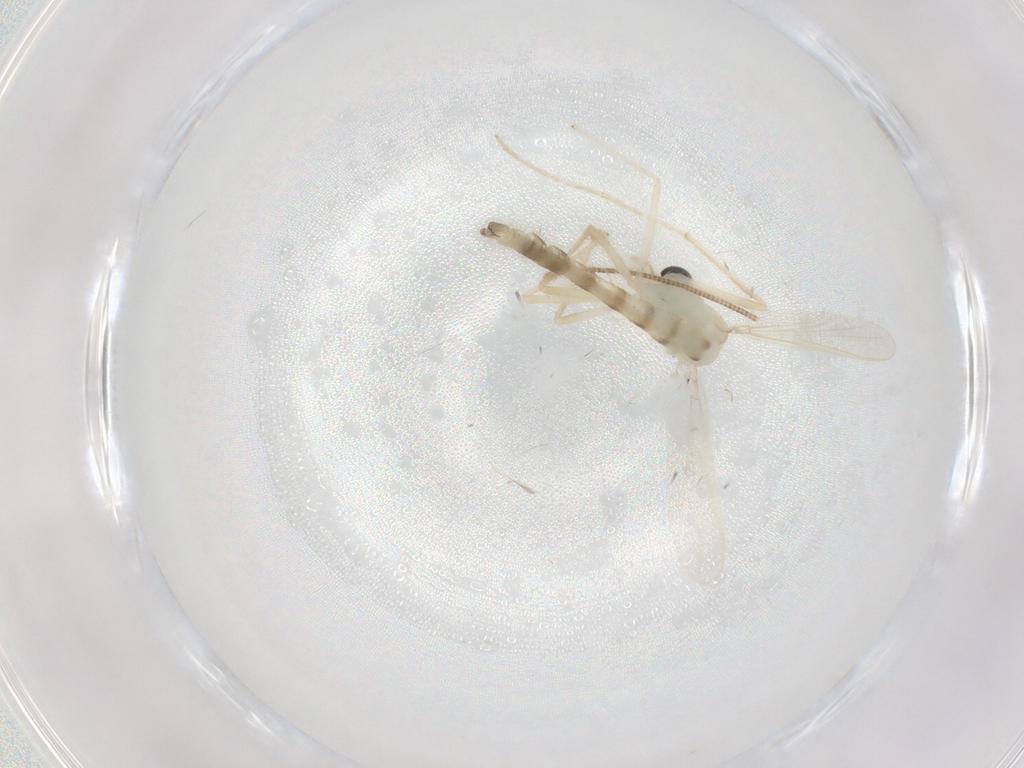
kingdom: Animalia
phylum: Arthropoda
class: Insecta
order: Diptera
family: Chironomidae
